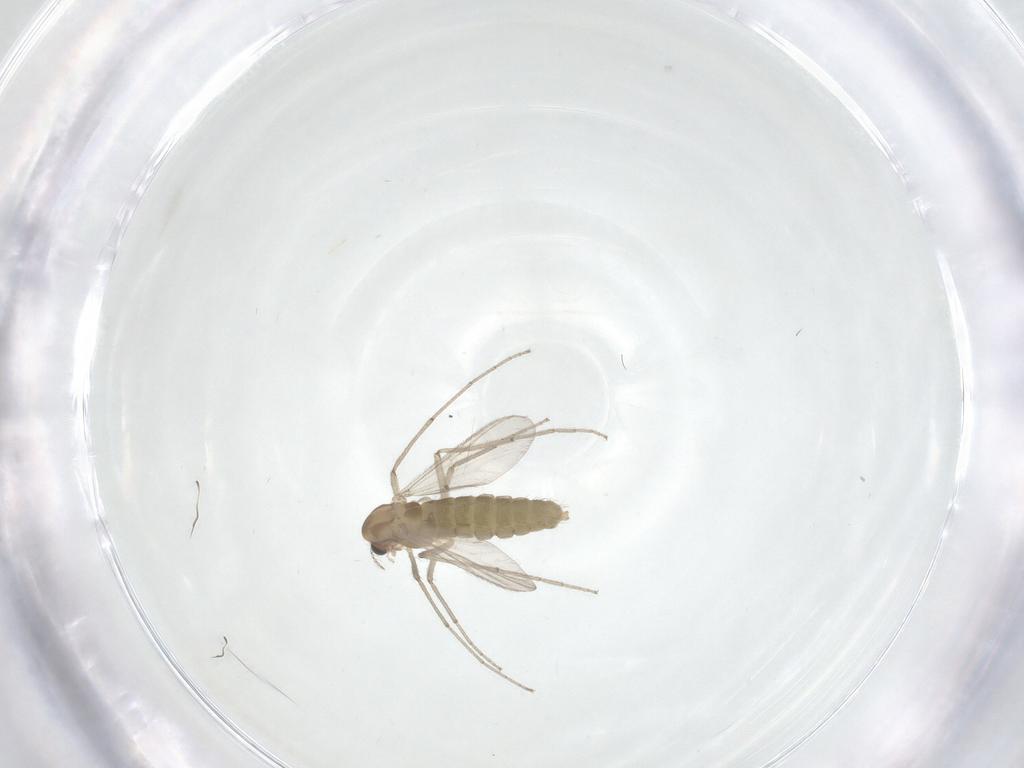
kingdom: Animalia
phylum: Arthropoda
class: Insecta
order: Diptera
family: Chironomidae
